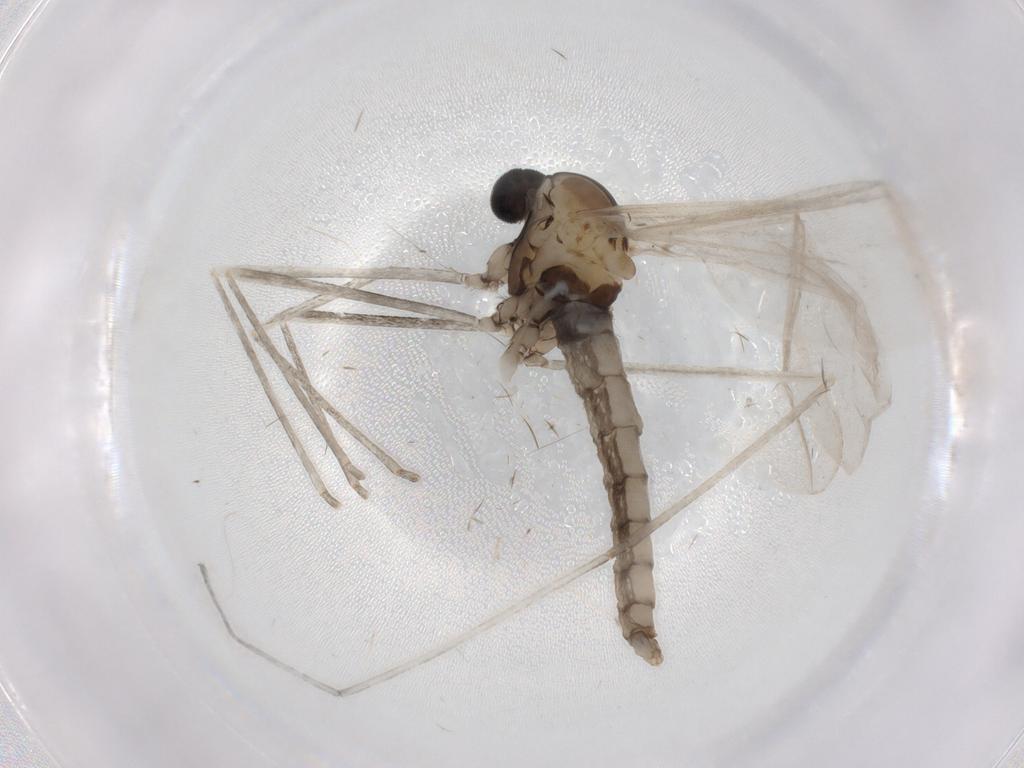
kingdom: Animalia
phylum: Arthropoda
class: Insecta
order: Diptera
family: Cecidomyiidae
